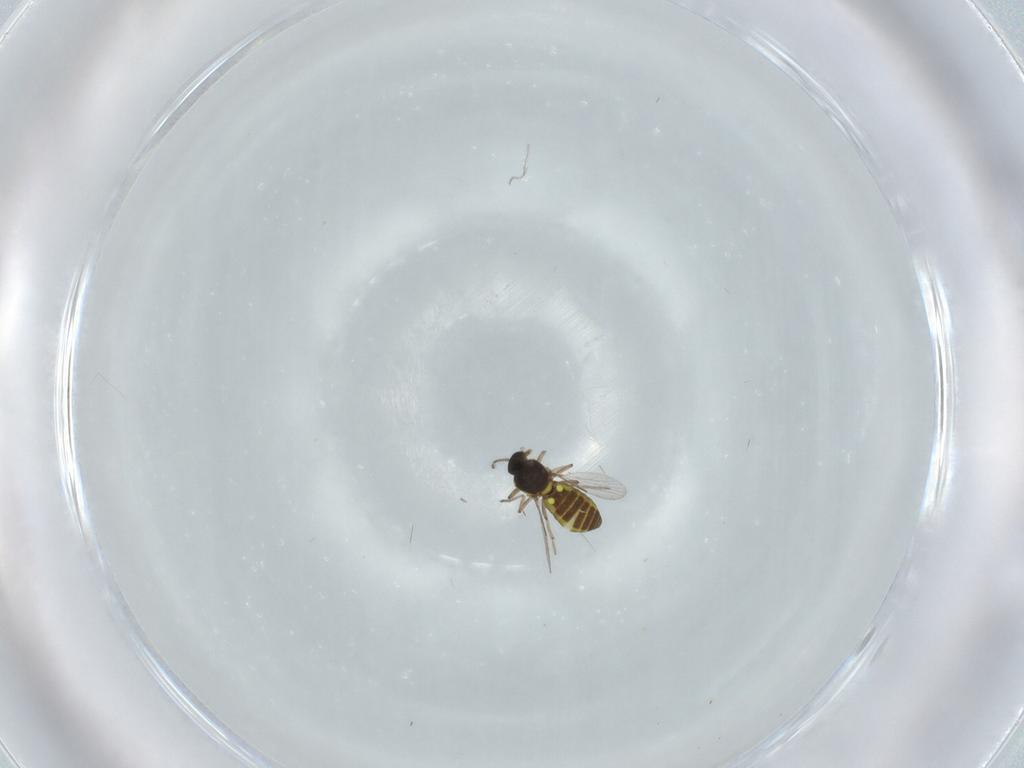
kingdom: Animalia
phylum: Arthropoda
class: Insecta
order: Diptera
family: Ceratopogonidae
